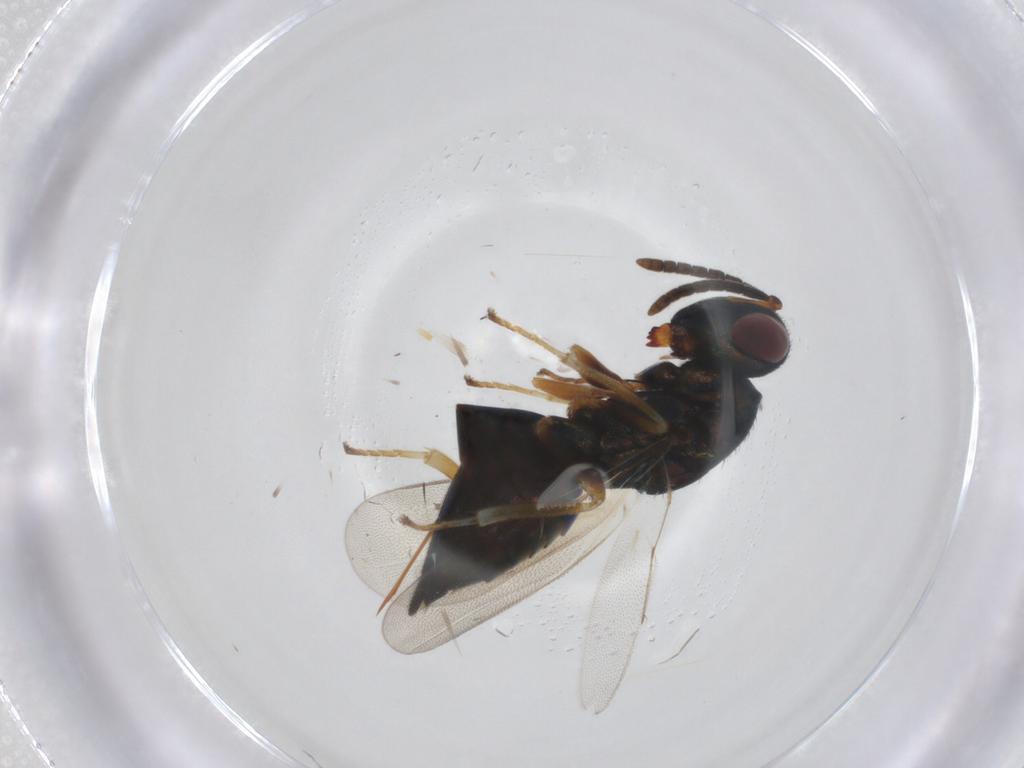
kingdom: Animalia
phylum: Arthropoda
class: Insecta
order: Hymenoptera
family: Pteromalidae
